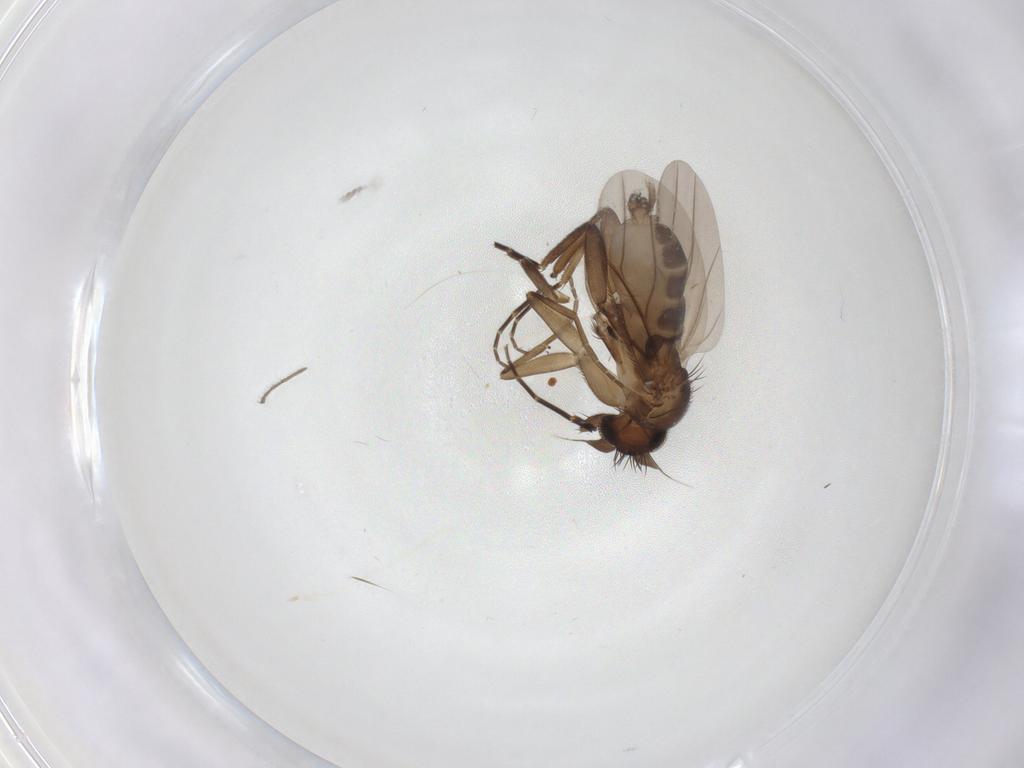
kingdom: Animalia
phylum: Arthropoda
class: Insecta
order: Diptera
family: Phoridae
